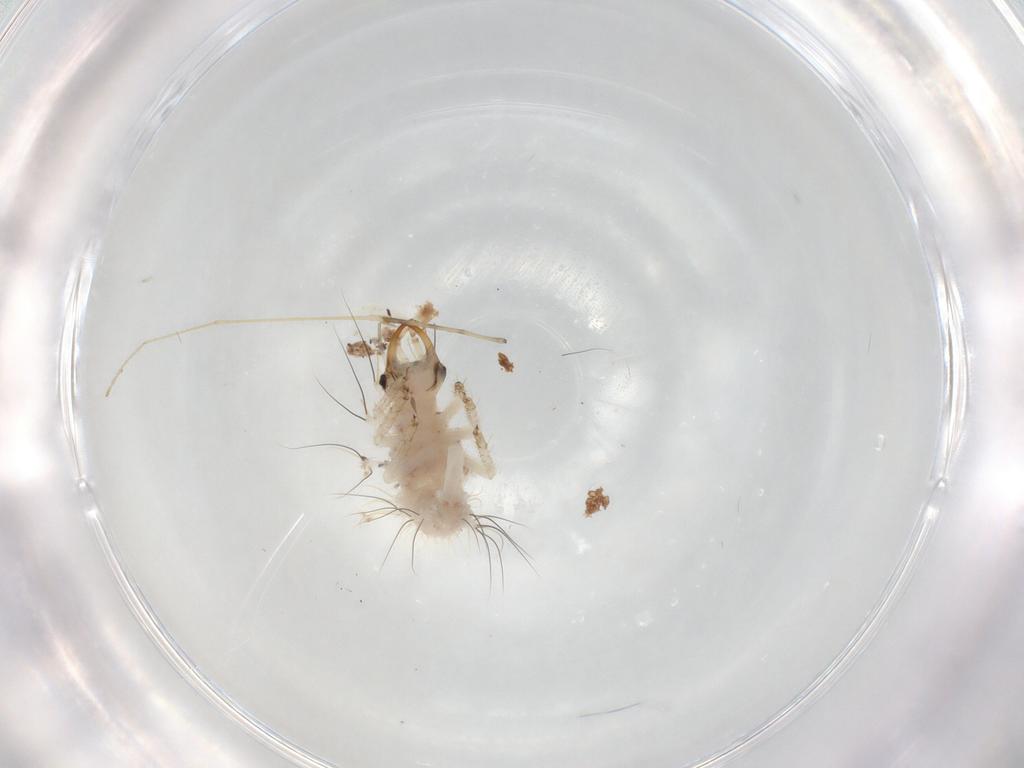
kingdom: Animalia
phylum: Arthropoda
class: Insecta
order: Neuroptera
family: Chrysopidae
